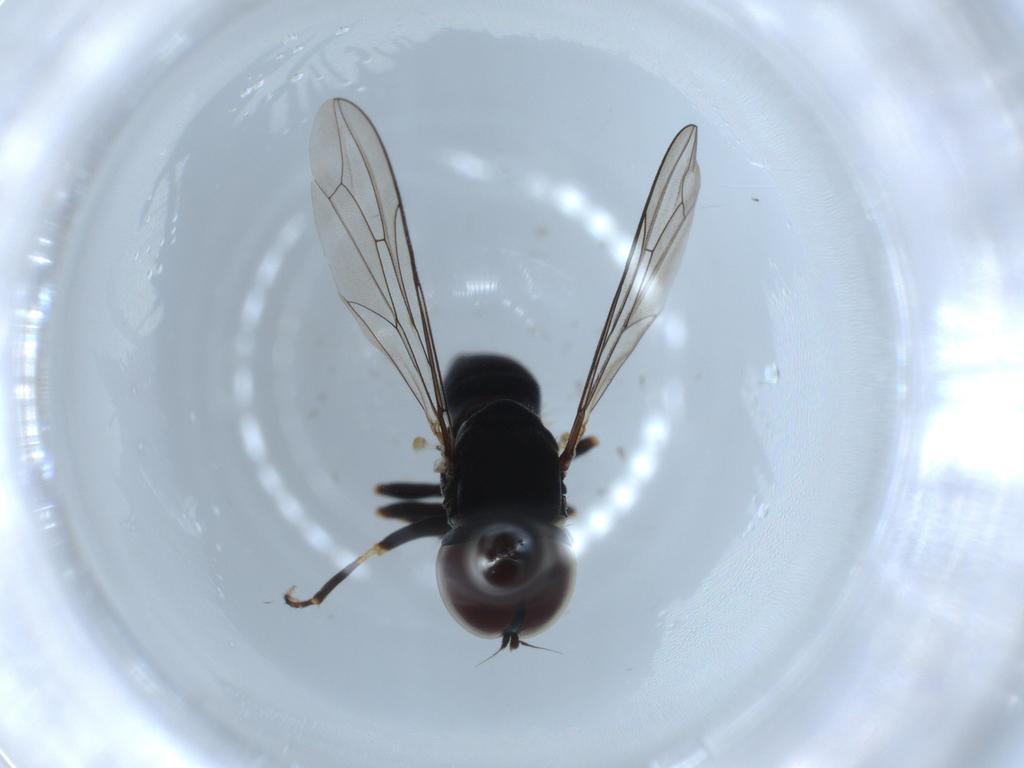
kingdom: Animalia
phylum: Arthropoda
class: Insecta
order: Diptera
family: Pipunculidae
